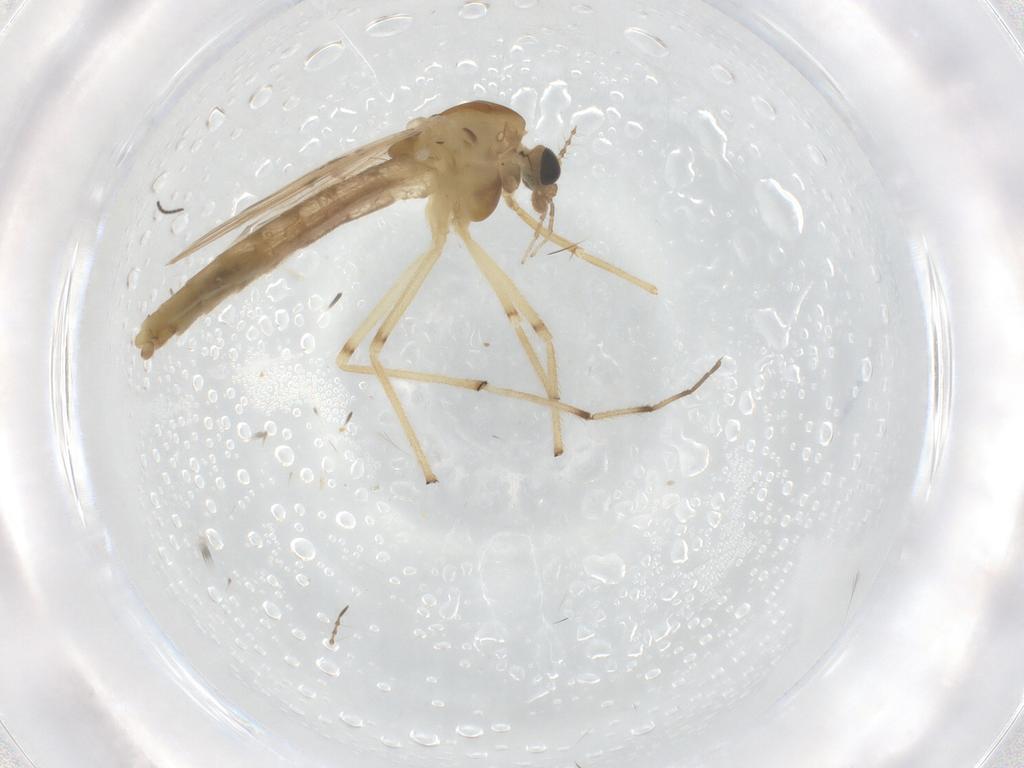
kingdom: Animalia
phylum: Arthropoda
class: Insecta
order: Diptera
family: Chironomidae
